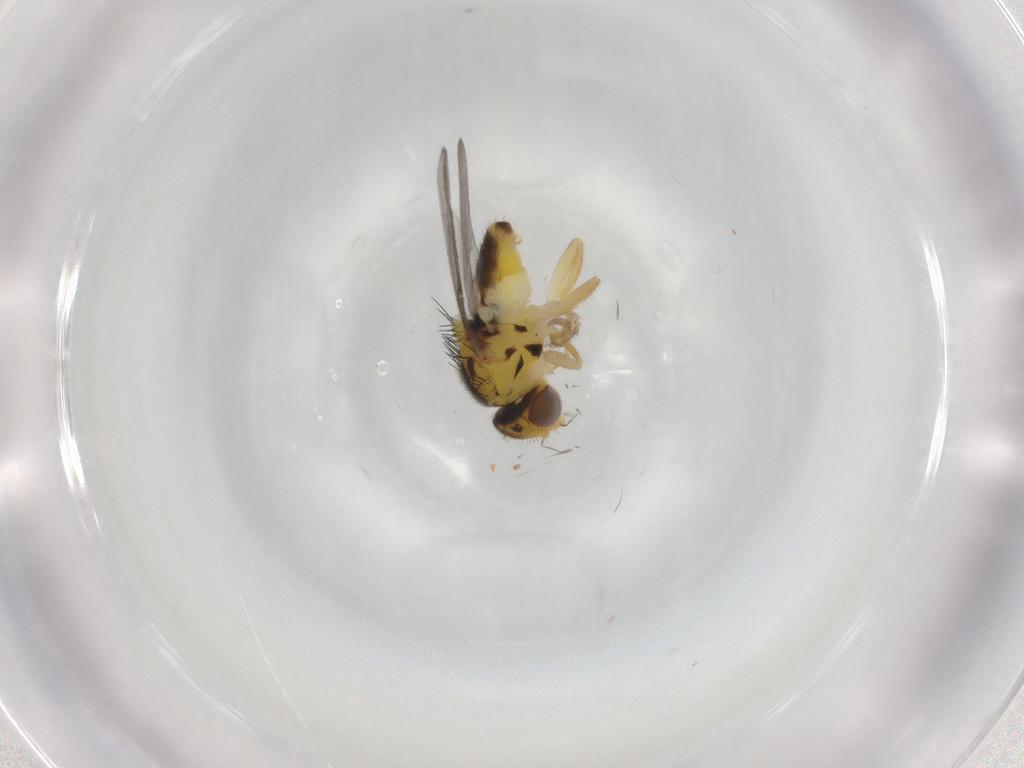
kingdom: Animalia
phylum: Arthropoda
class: Insecta
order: Diptera
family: Chloropidae
